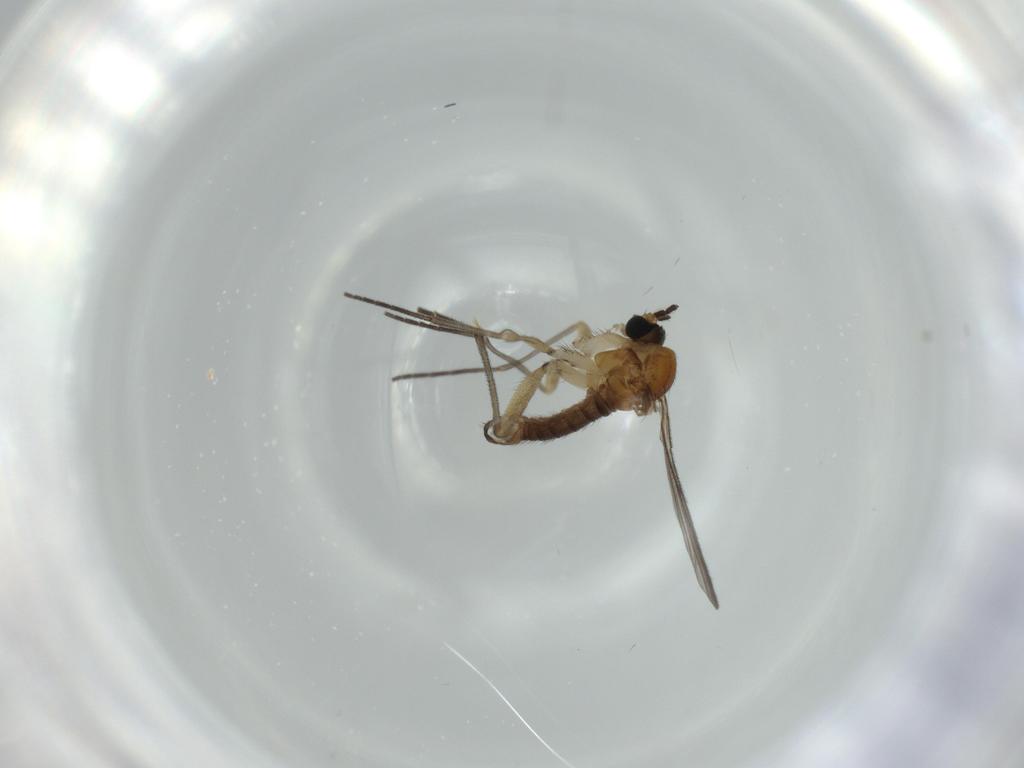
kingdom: Animalia
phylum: Arthropoda
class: Insecta
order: Diptera
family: Sciaridae
